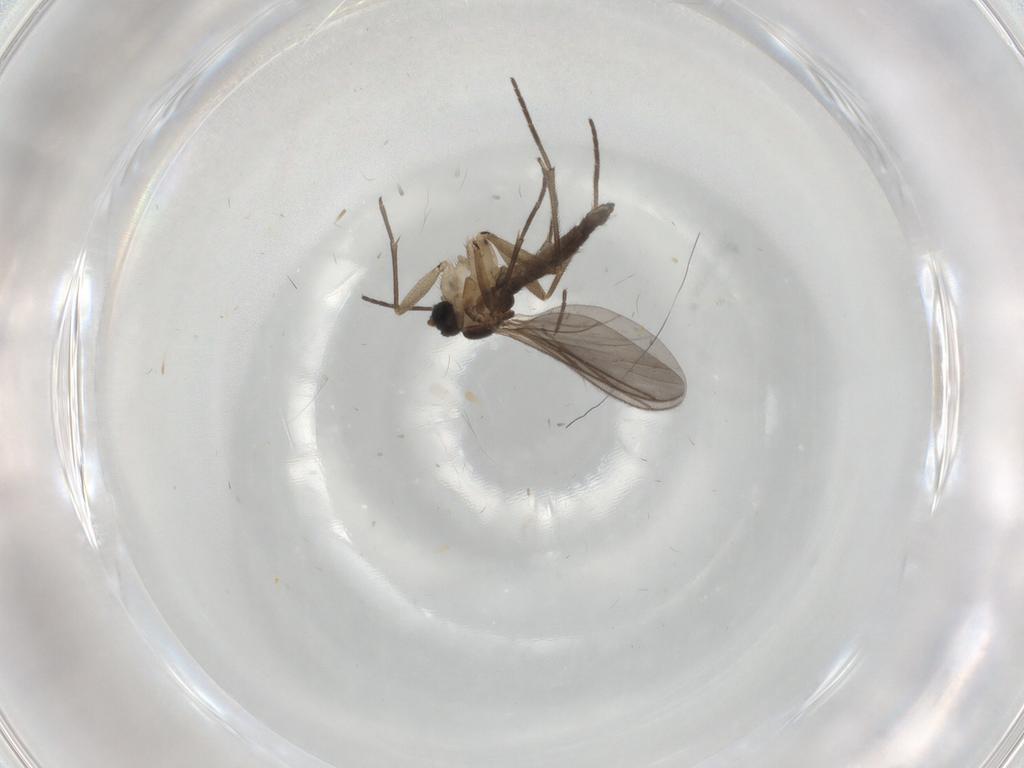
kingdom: Animalia
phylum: Arthropoda
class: Insecta
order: Diptera
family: Sciaridae
